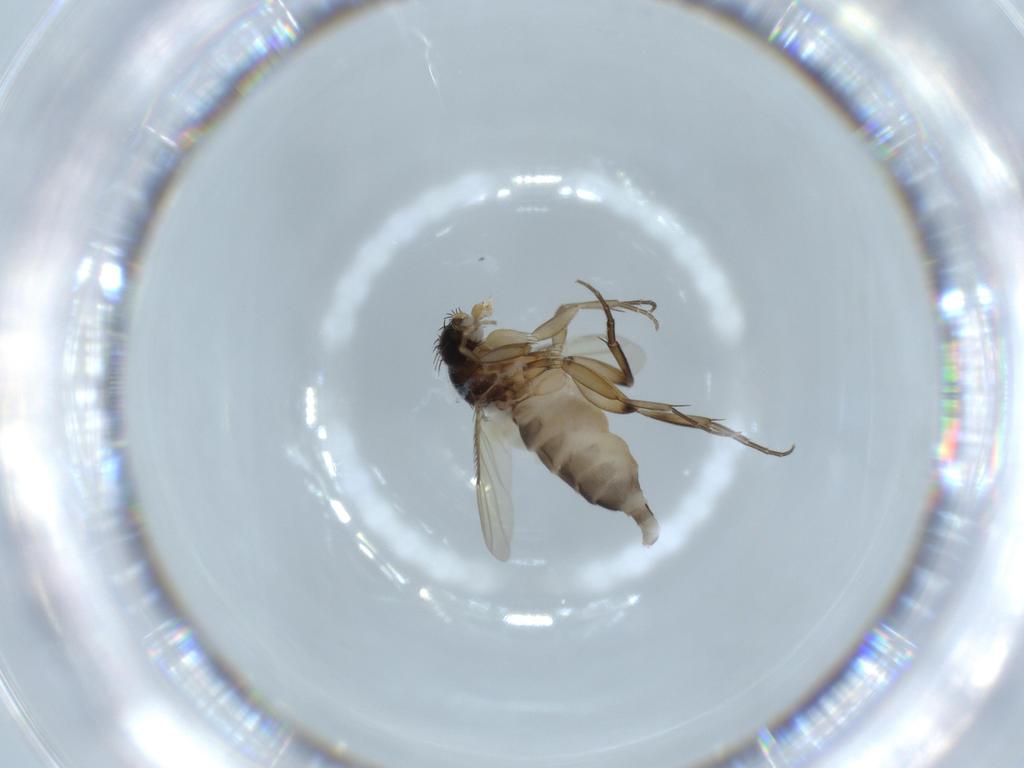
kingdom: Animalia
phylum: Arthropoda
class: Insecta
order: Diptera
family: Phoridae
